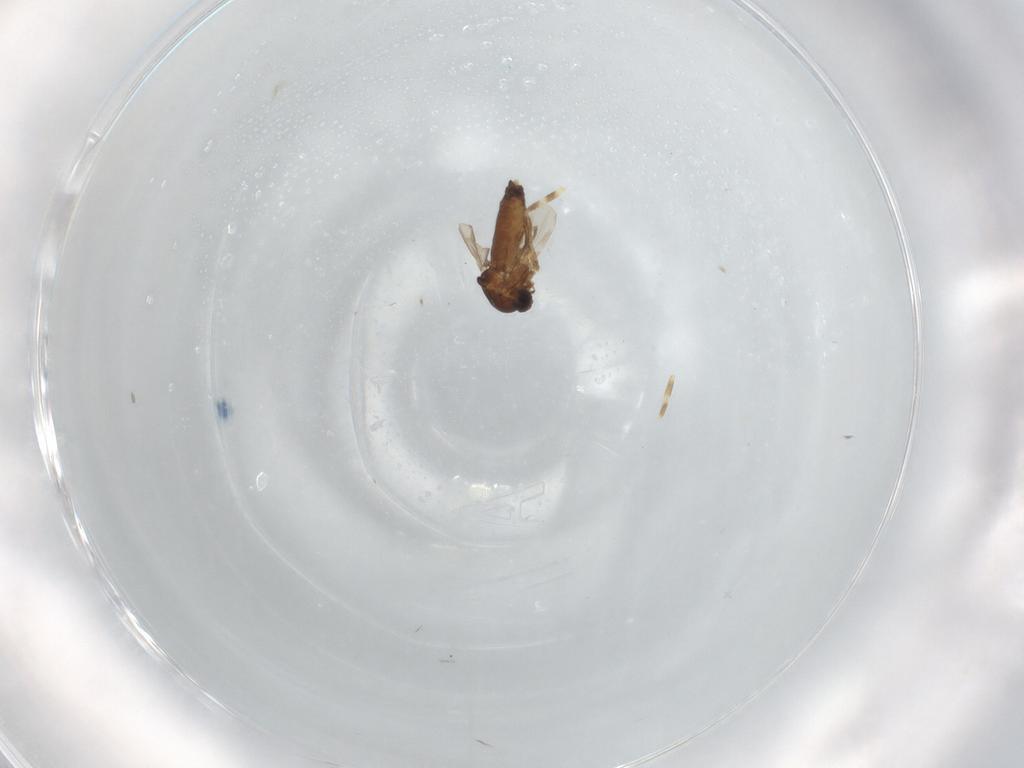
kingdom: Animalia
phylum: Arthropoda
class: Insecta
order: Diptera
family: Ceratopogonidae
